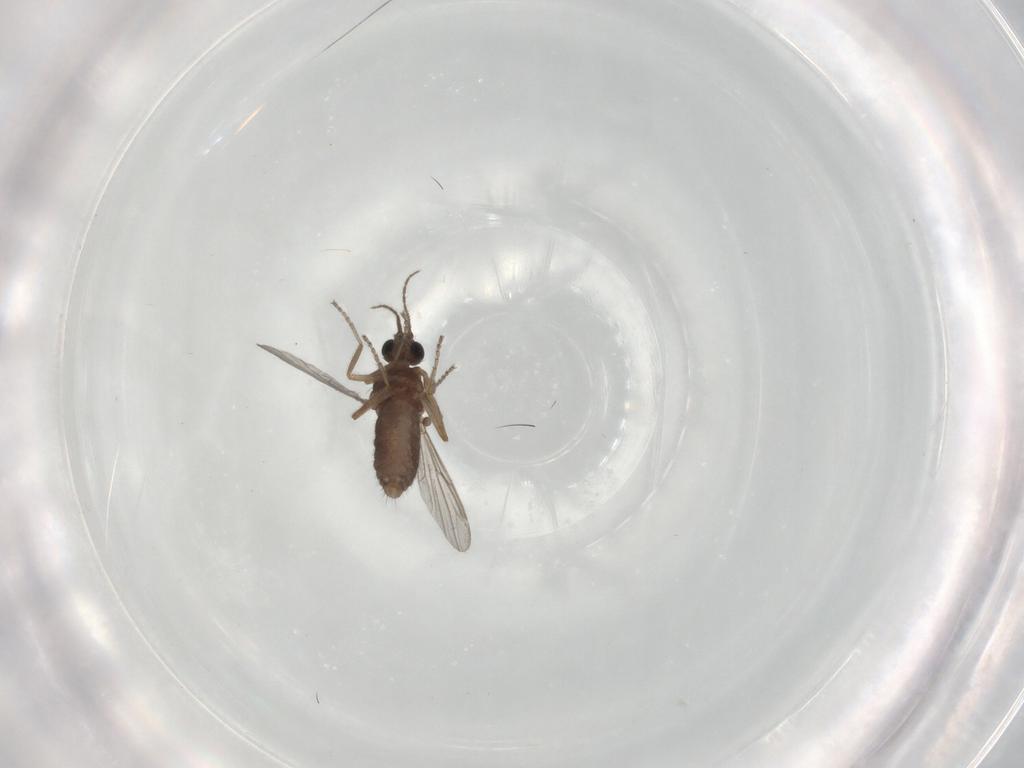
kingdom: Animalia
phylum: Arthropoda
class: Insecta
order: Diptera
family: Ceratopogonidae
